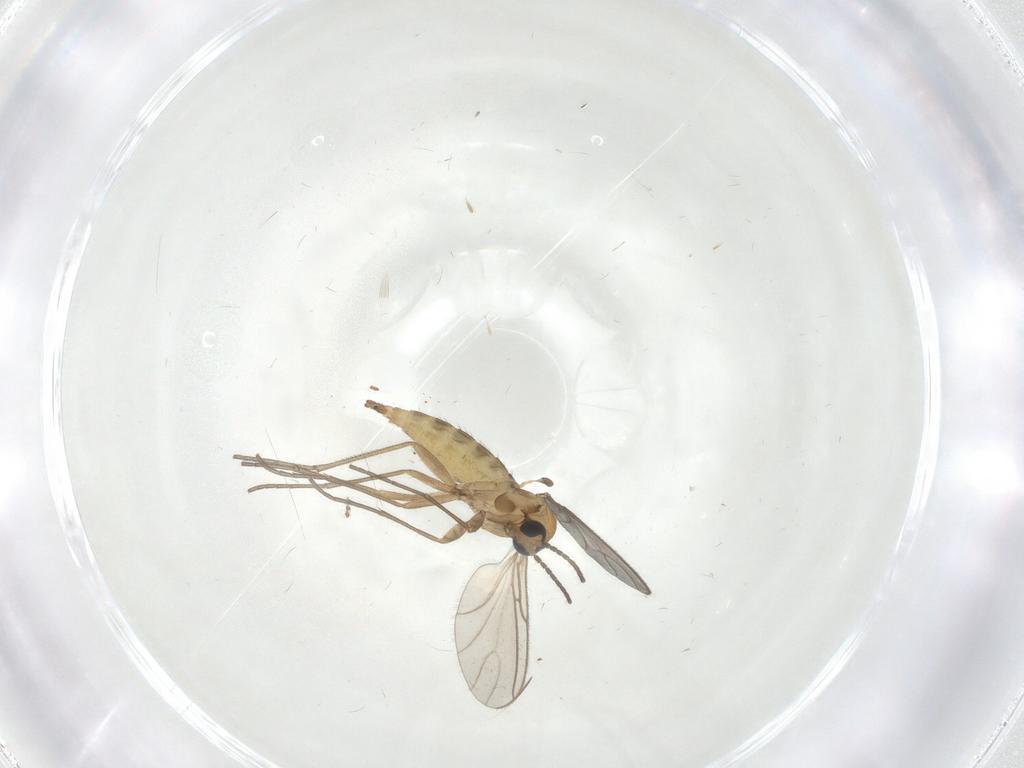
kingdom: Animalia
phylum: Arthropoda
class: Insecta
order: Diptera
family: Sciaridae
